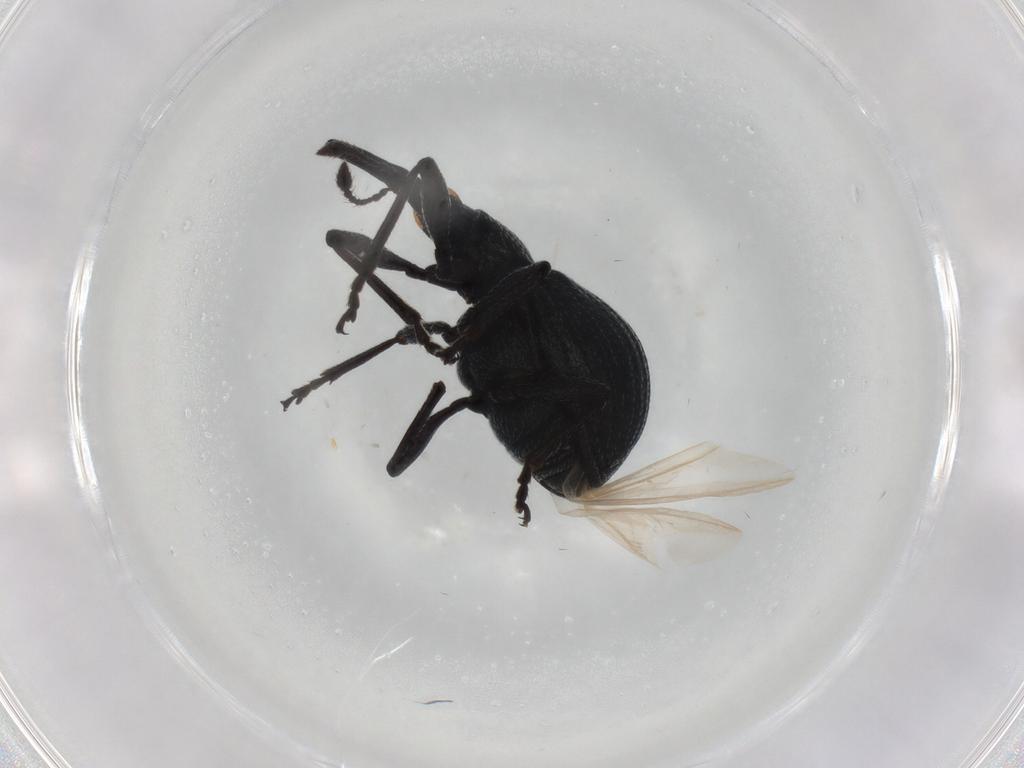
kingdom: Animalia
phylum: Arthropoda
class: Insecta
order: Coleoptera
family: Brentidae
